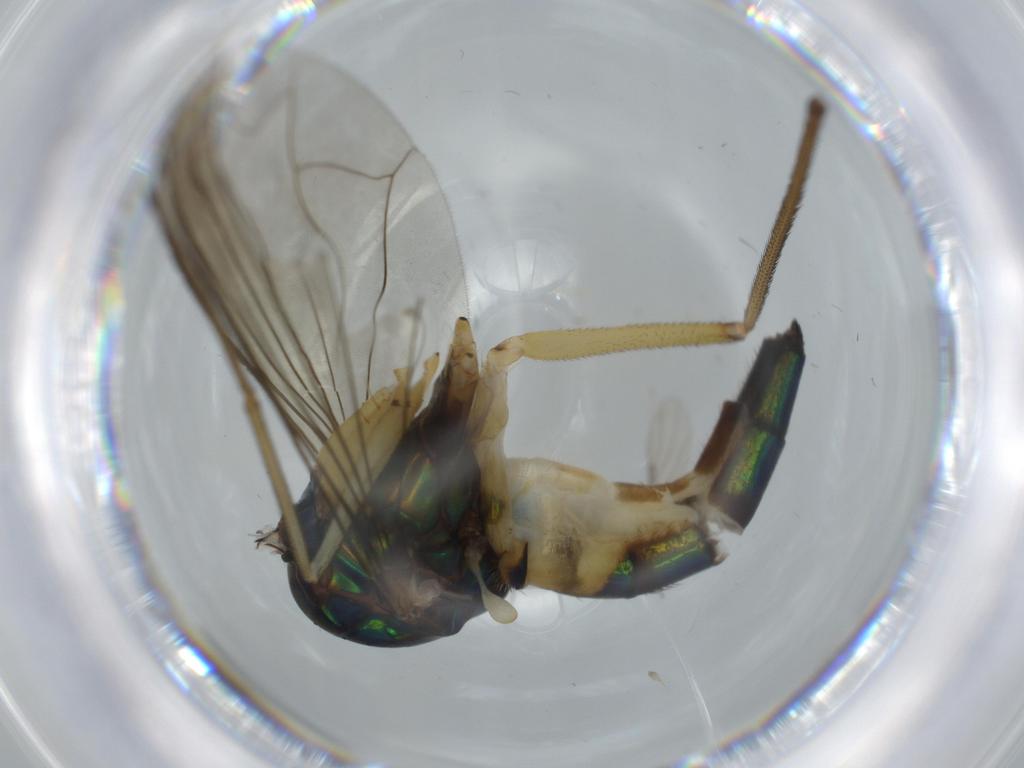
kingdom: Animalia
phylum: Arthropoda
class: Insecta
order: Diptera
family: Dolichopodidae
